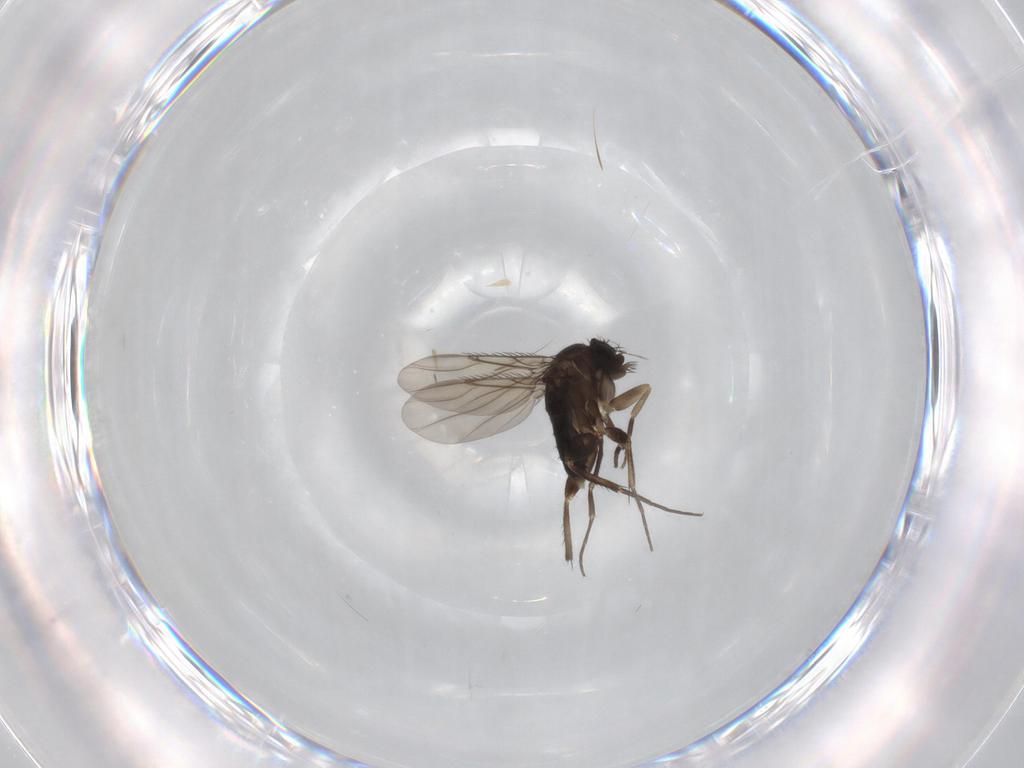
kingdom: Animalia
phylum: Arthropoda
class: Insecta
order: Diptera
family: Phoridae
